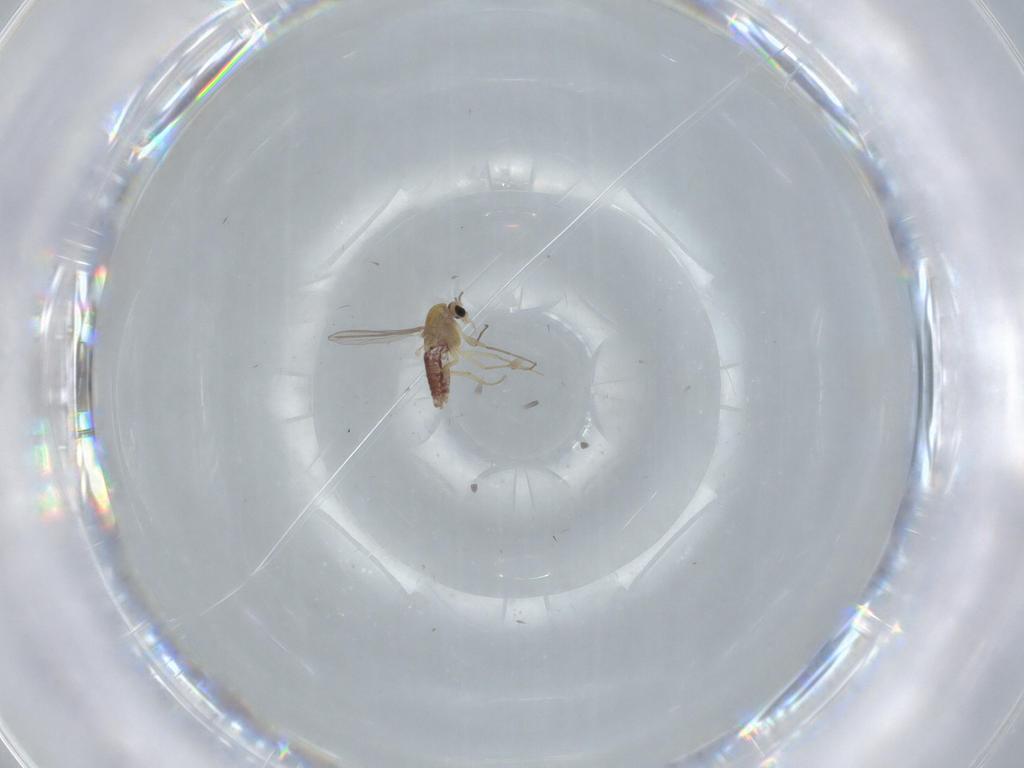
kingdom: Animalia
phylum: Arthropoda
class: Insecta
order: Diptera
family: Chironomidae
